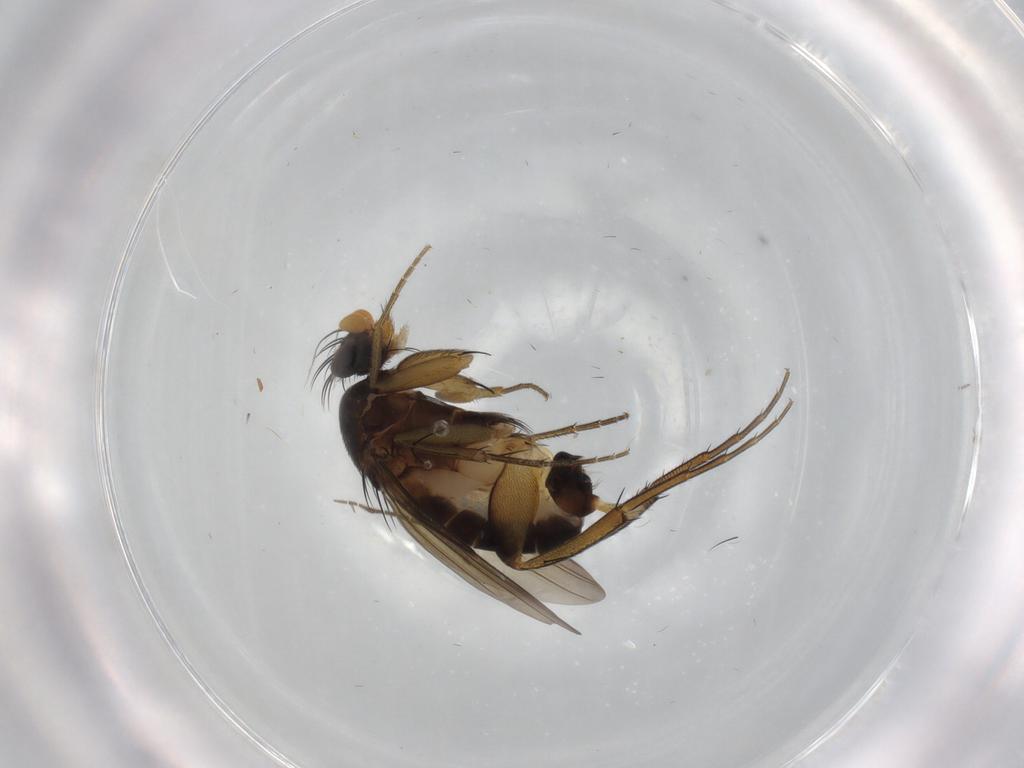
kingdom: Animalia
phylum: Arthropoda
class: Insecta
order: Diptera
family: Phoridae
